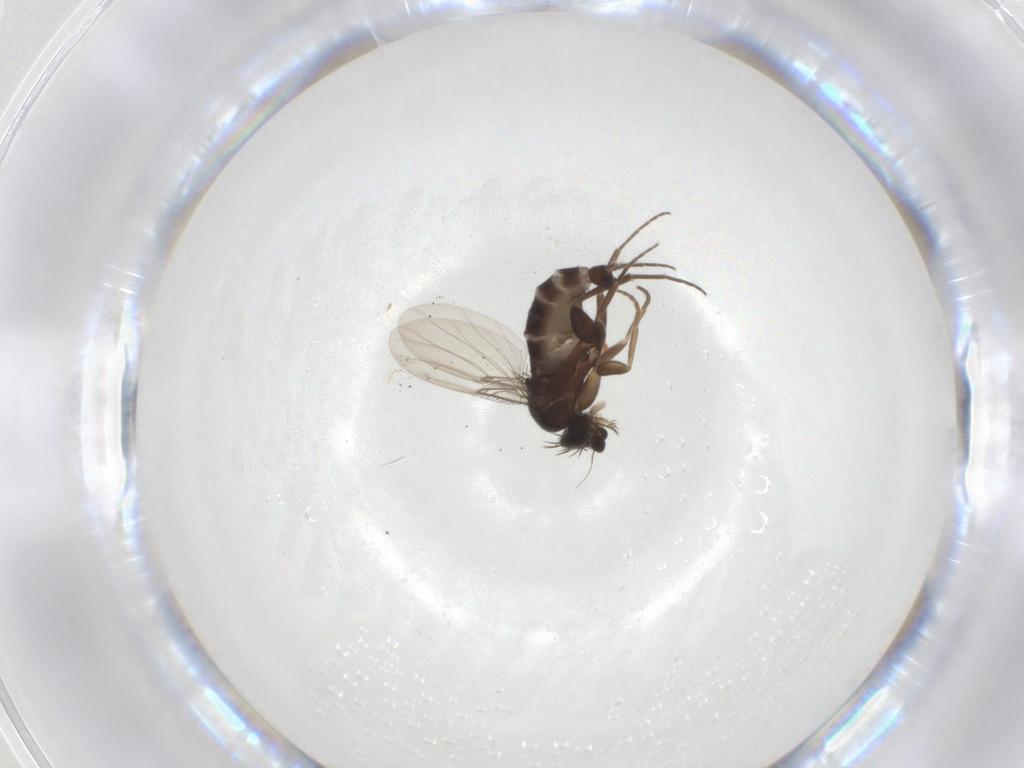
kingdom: Animalia
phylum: Arthropoda
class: Insecta
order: Diptera
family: Phoridae
